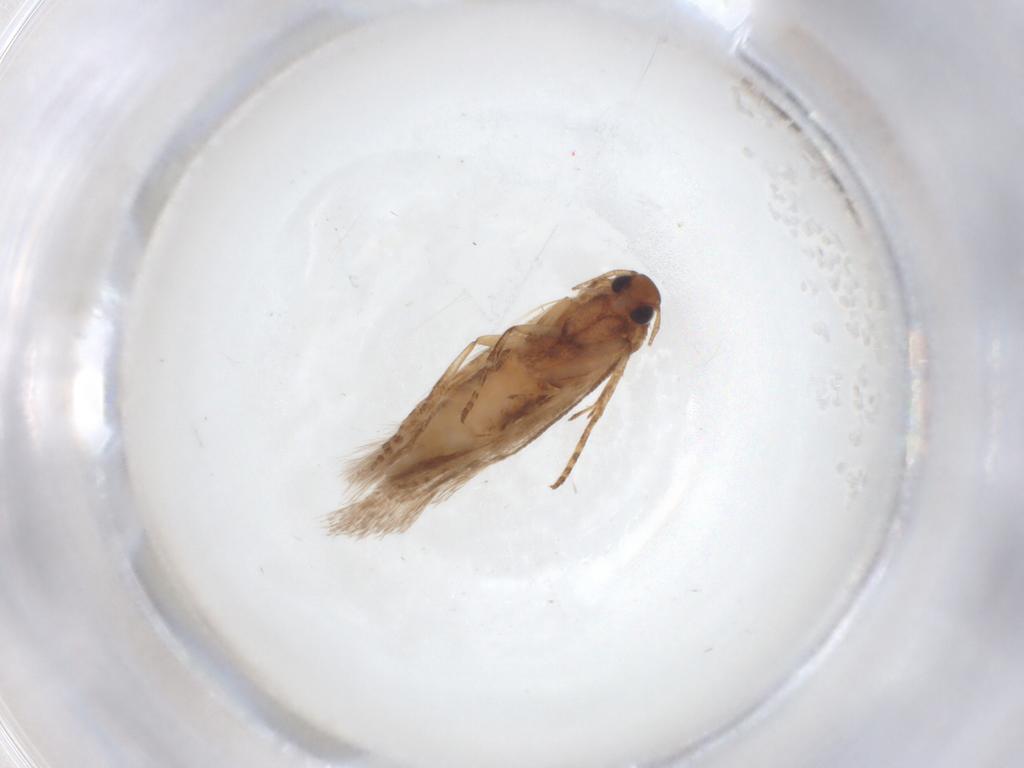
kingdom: Animalia
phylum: Arthropoda
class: Insecta
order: Lepidoptera
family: Gelechiidae
